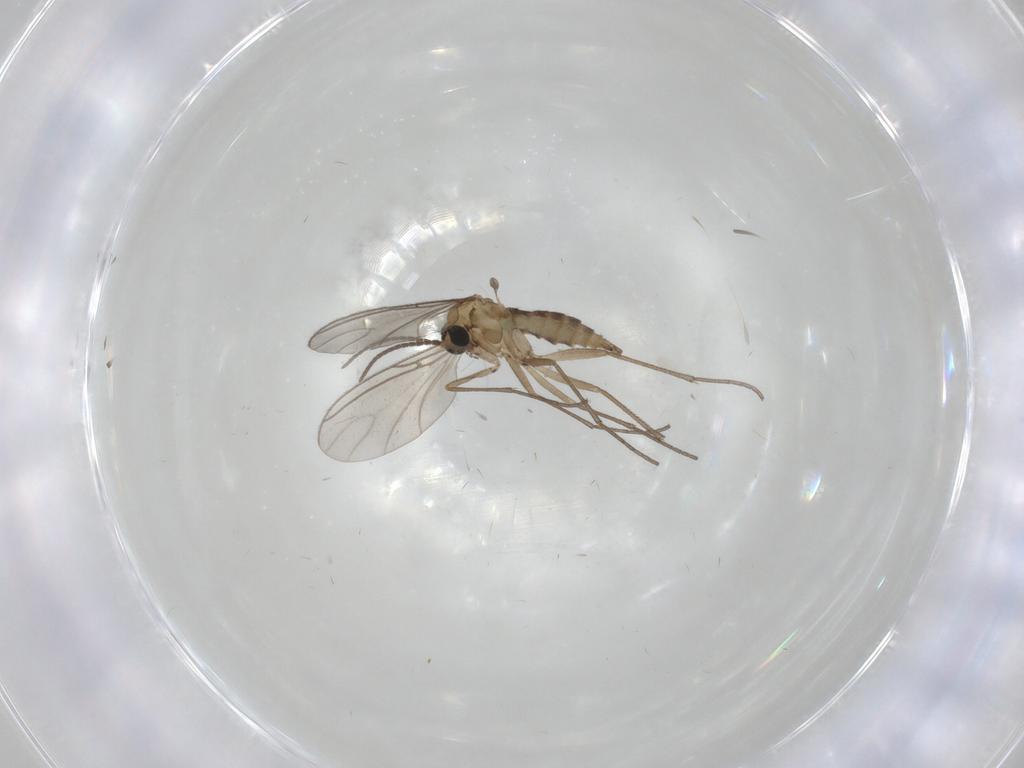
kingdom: Animalia
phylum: Arthropoda
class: Insecta
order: Diptera
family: Sciaridae
